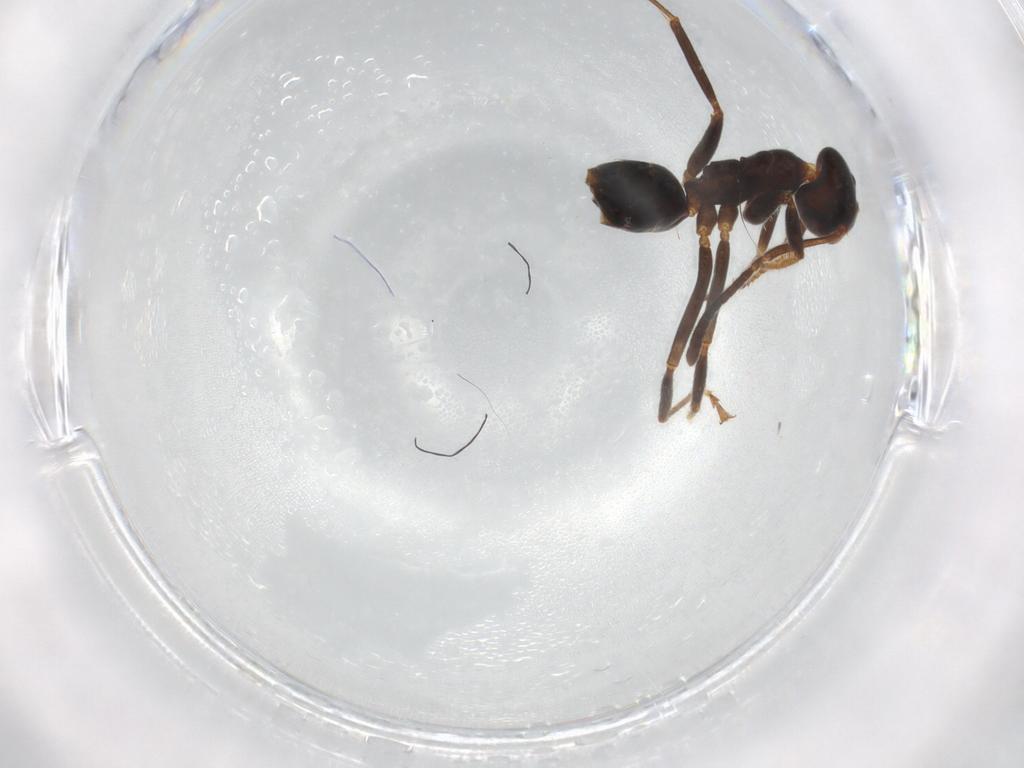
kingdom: Animalia
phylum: Arthropoda
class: Insecta
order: Hymenoptera
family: Formicidae
